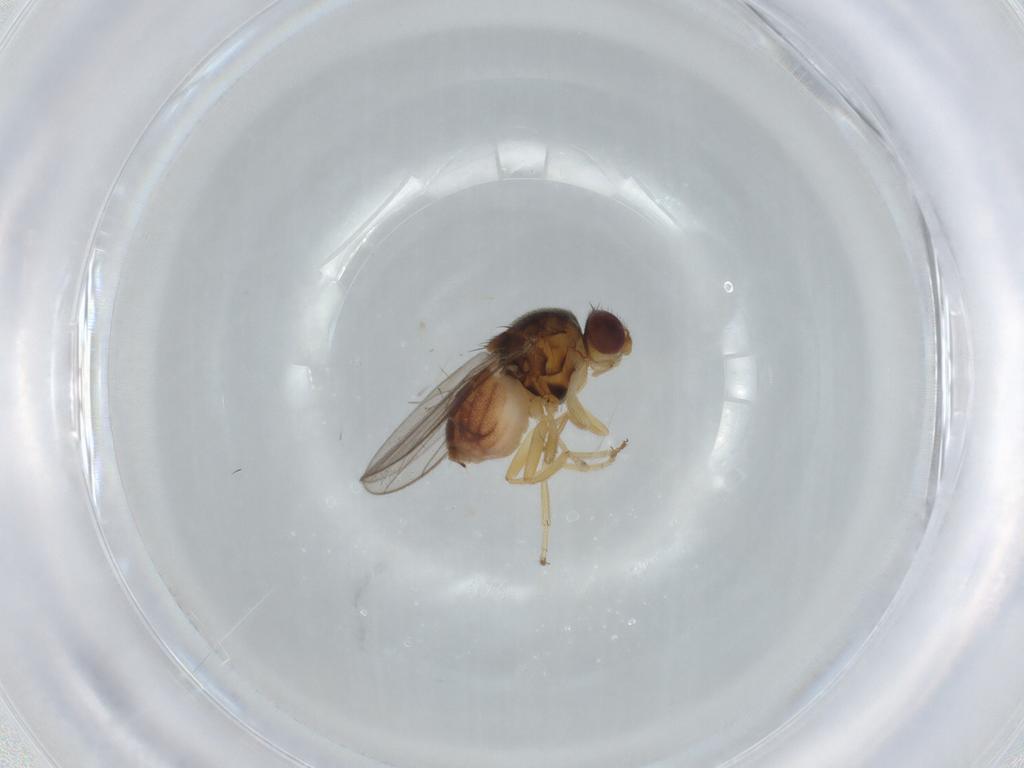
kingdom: Animalia
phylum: Arthropoda
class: Insecta
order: Diptera
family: Chloropidae
